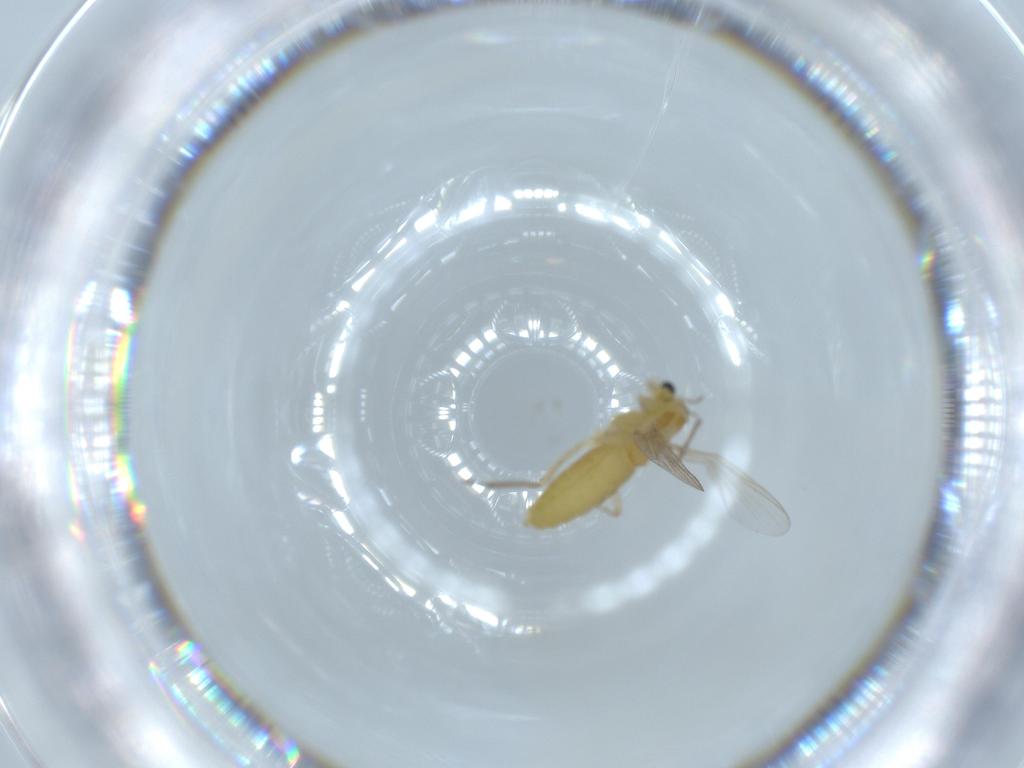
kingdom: Animalia
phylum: Arthropoda
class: Insecta
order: Diptera
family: Chironomidae
